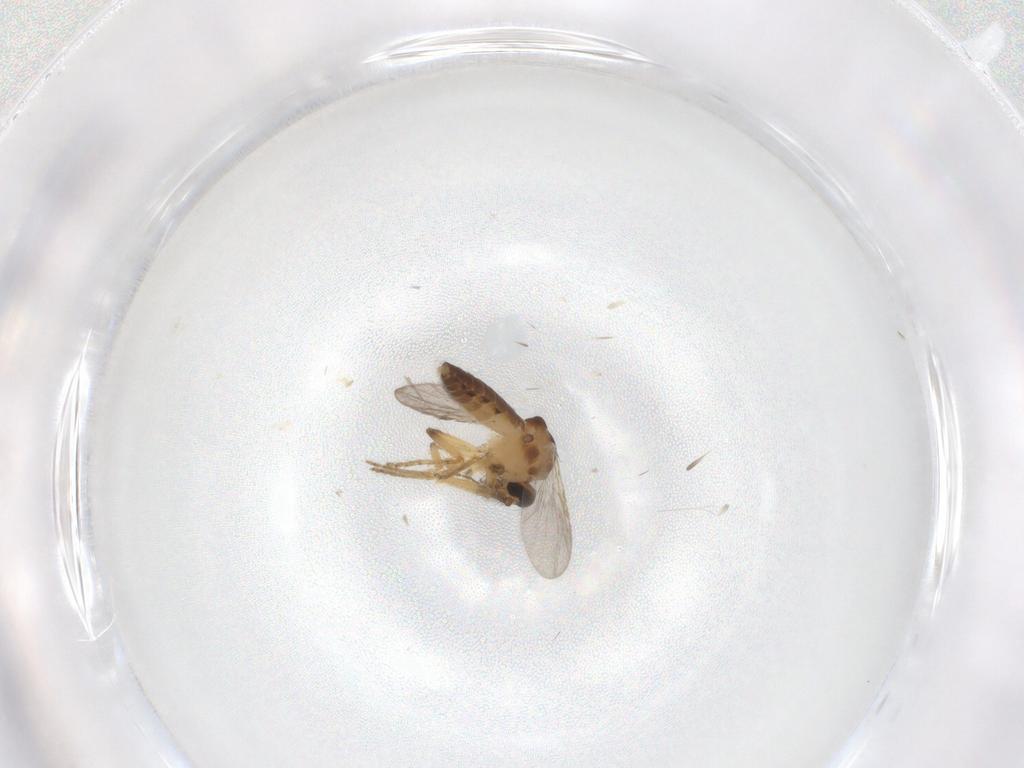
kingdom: Animalia
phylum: Arthropoda
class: Insecta
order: Diptera
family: Ceratopogonidae
